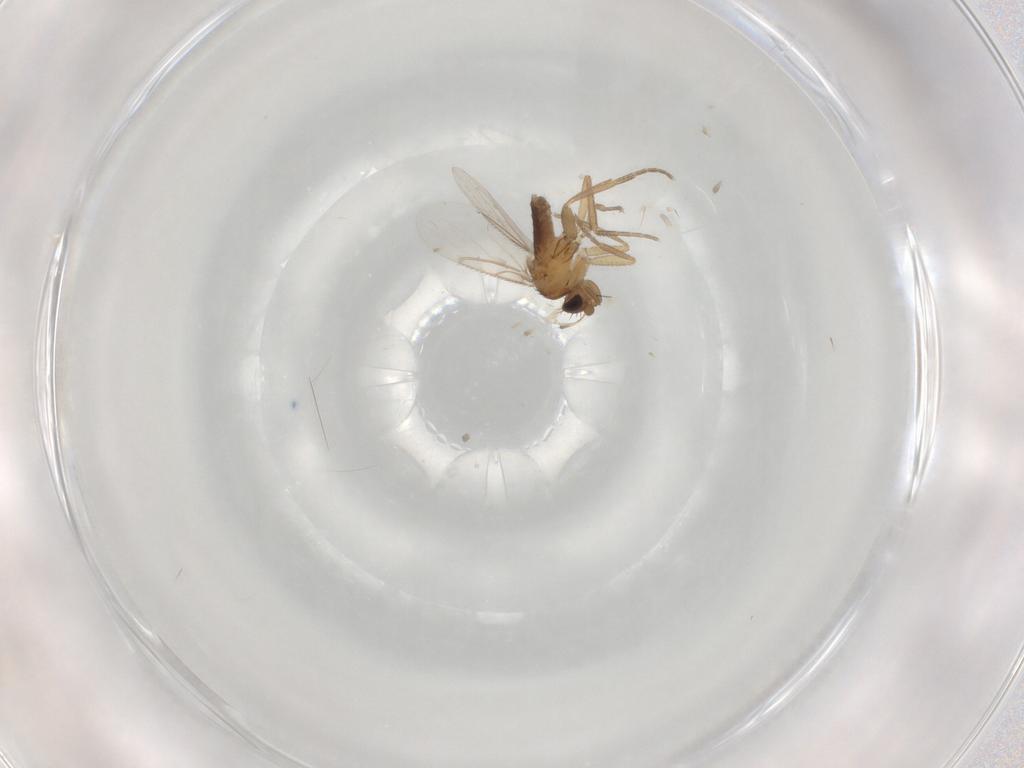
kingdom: Animalia
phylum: Arthropoda
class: Insecta
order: Diptera
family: Cecidomyiidae
